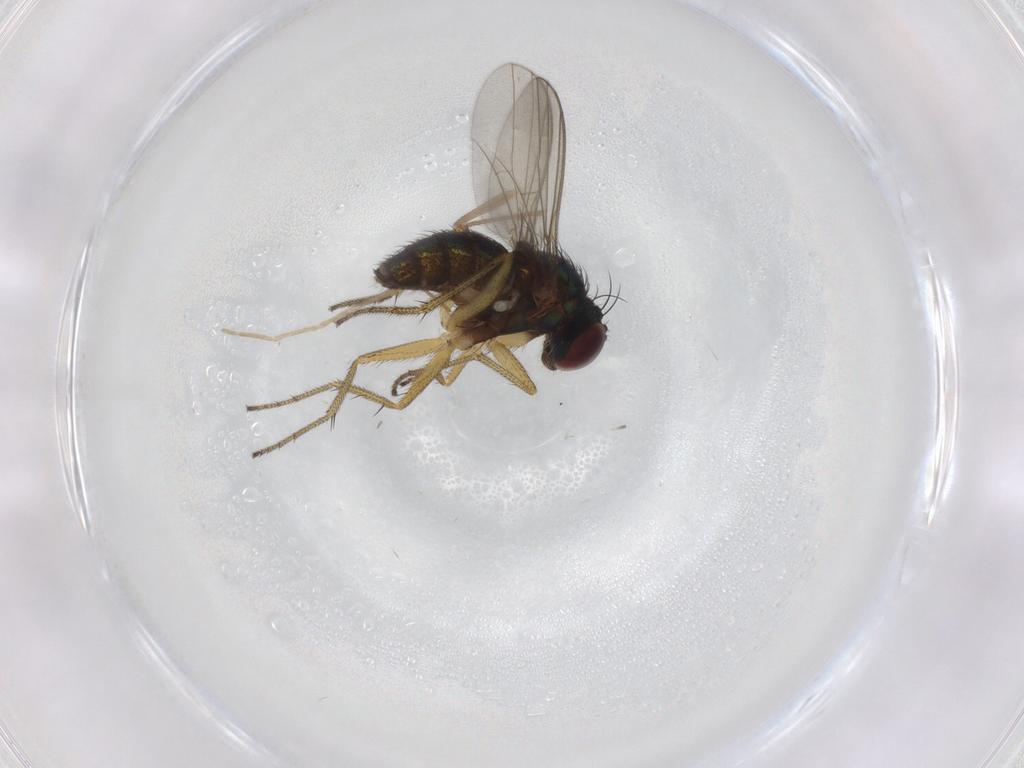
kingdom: Animalia
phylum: Arthropoda
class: Insecta
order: Diptera
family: Chironomidae
